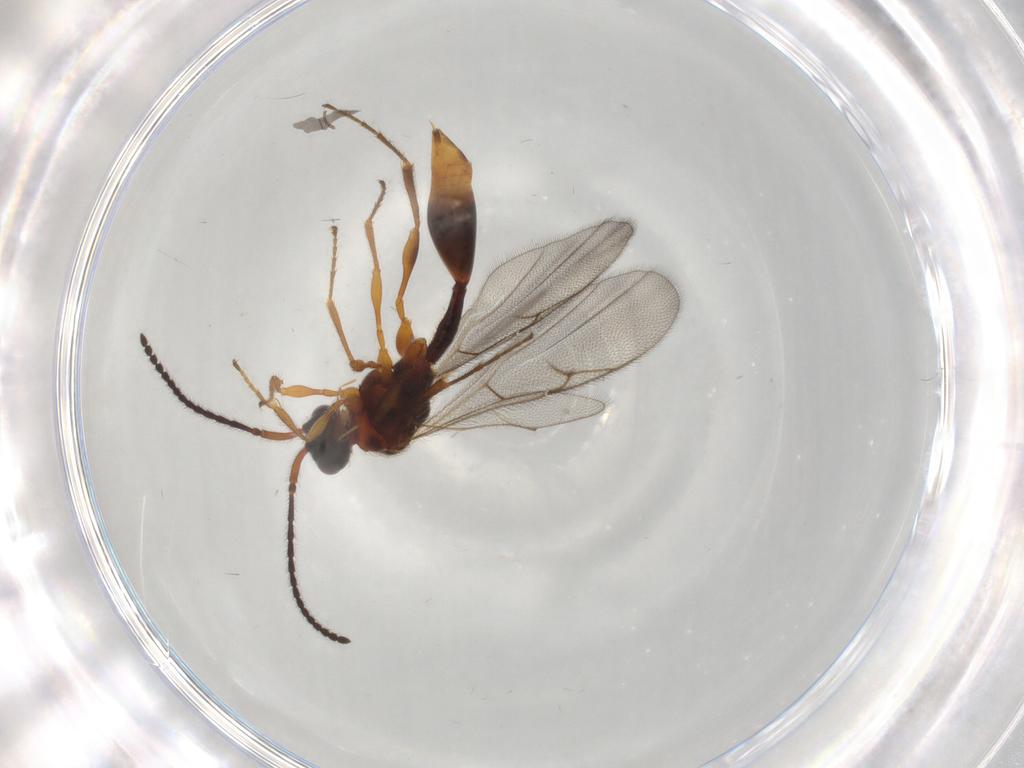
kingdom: Animalia
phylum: Arthropoda
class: Insecta
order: Hymenoptera
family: Diapriidae
